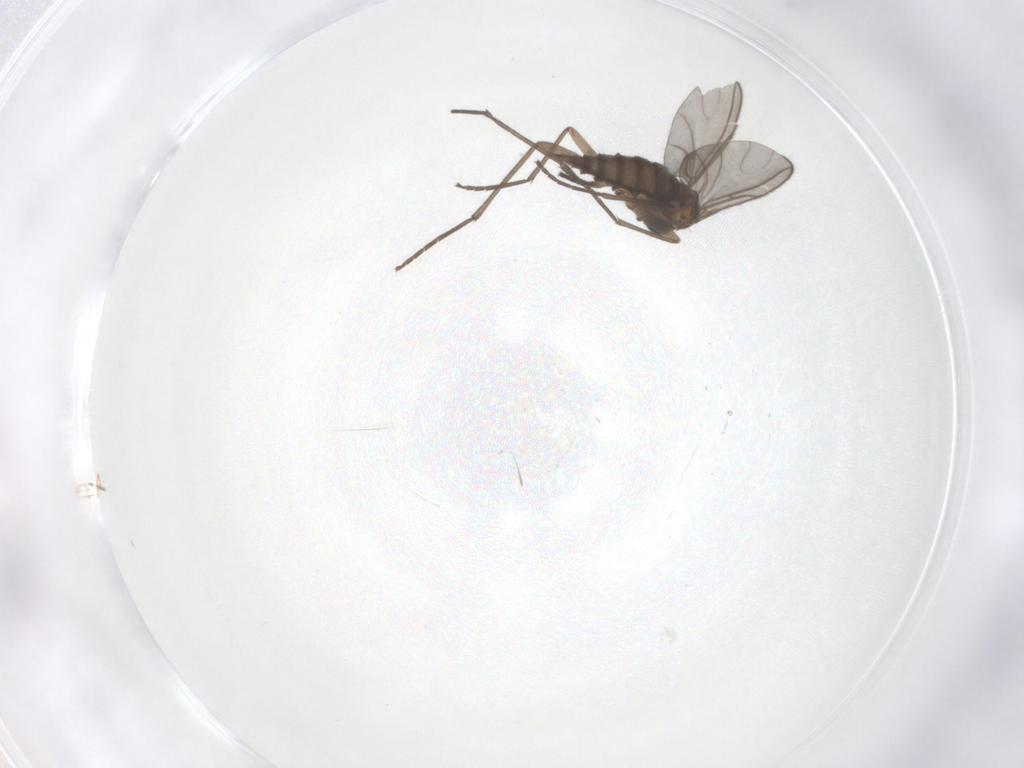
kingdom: Animalia
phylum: Arthropoda
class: Insecta
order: Diptera
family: Sciaridae
